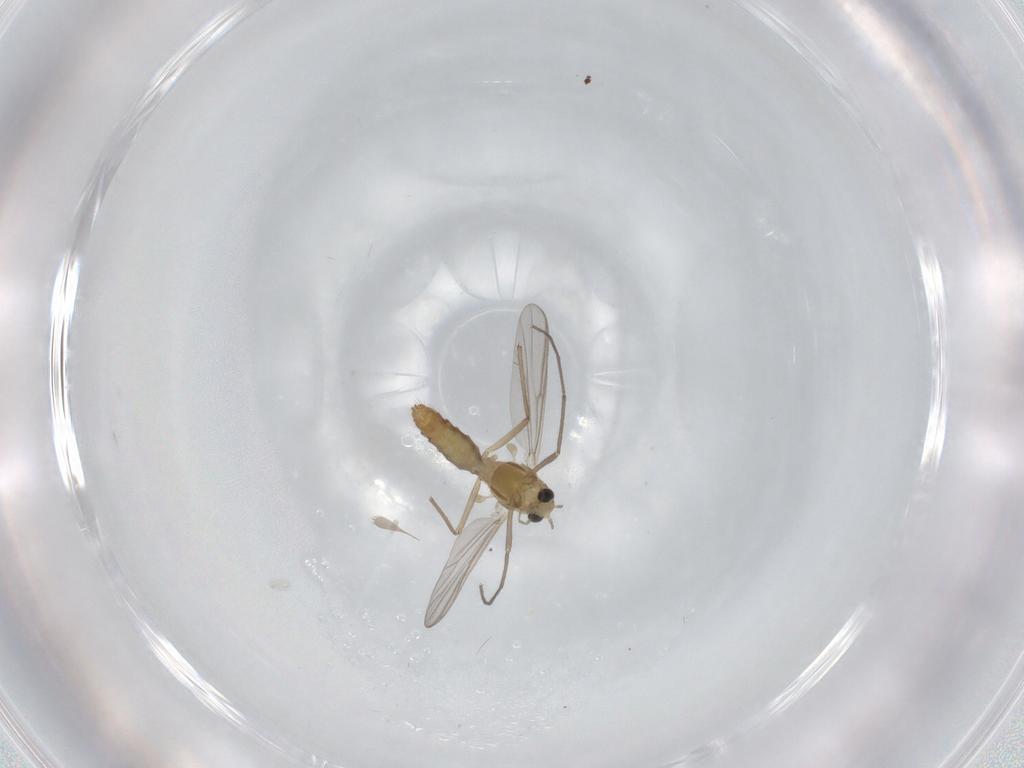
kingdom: Animalia
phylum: Arthropoda
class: Insecta
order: Diptera
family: Chironomidae
